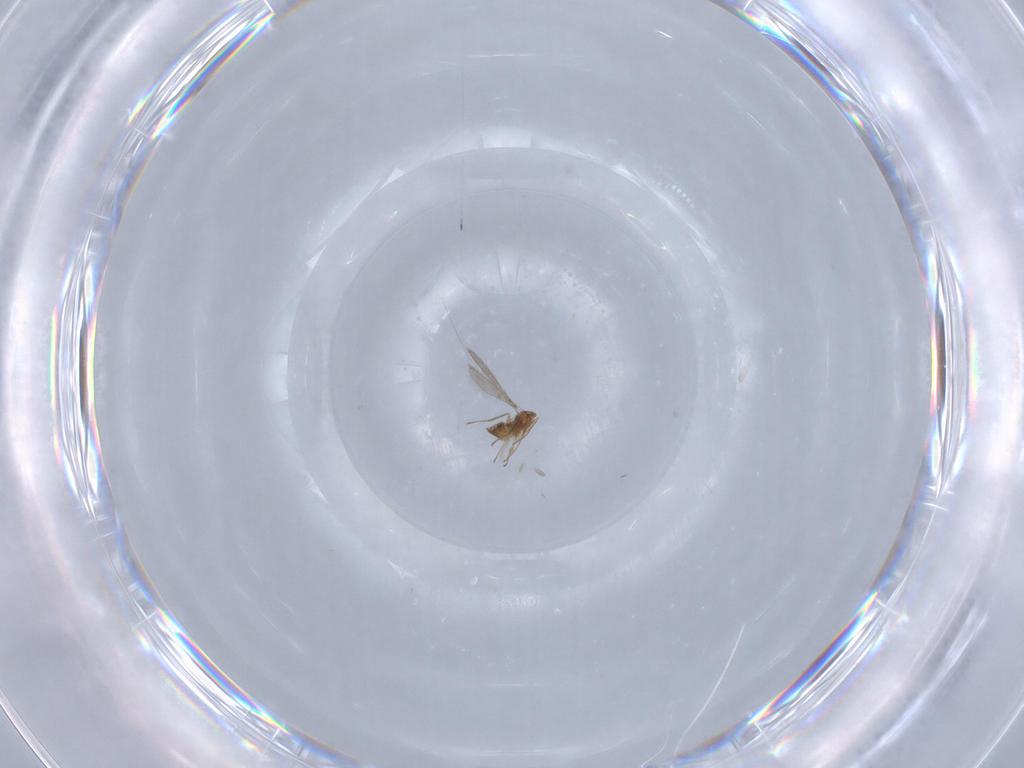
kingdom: Animalia
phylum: Arthropoda
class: Insecta
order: Hymenoptera
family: Mymaridae
